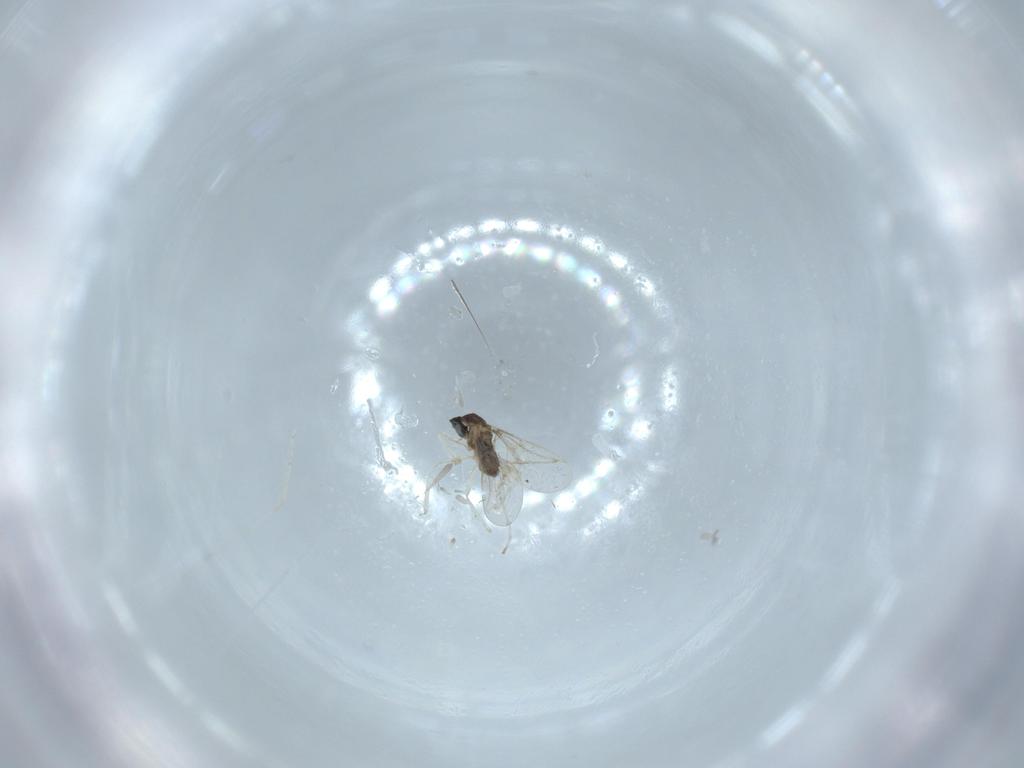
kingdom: Animalia
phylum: Arthropoda
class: Insecta
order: Diptera
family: Cecidomyiidae
